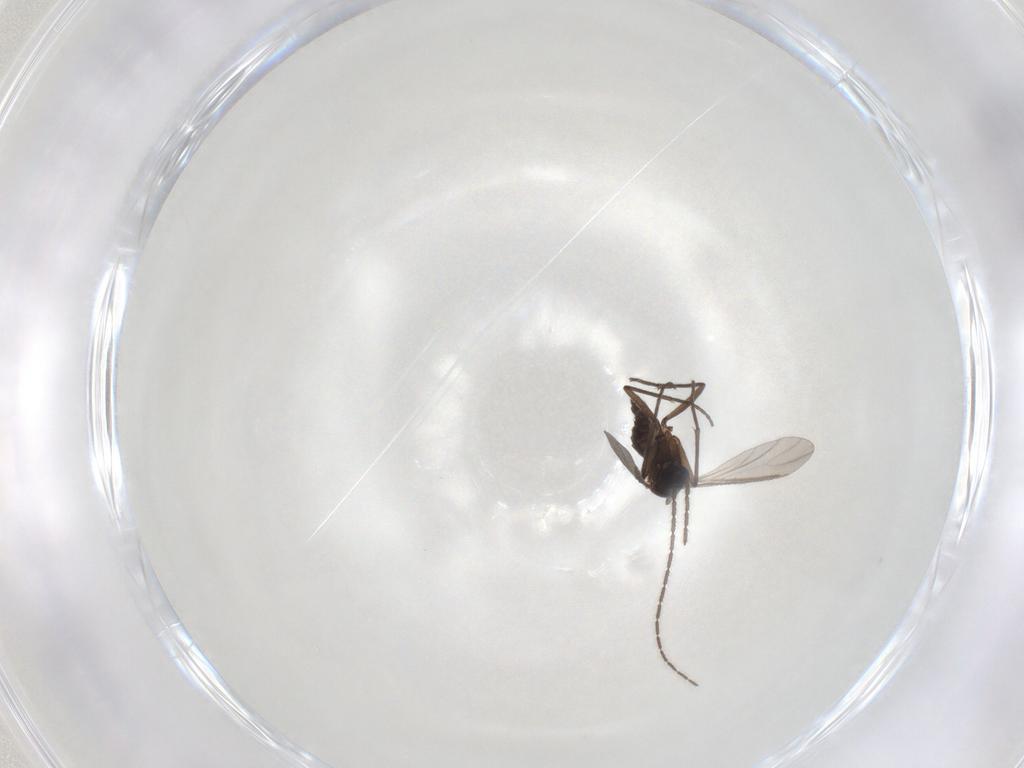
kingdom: Animalia
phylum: Arthropoda
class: Insecta
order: Diptera
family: Sciaridae
